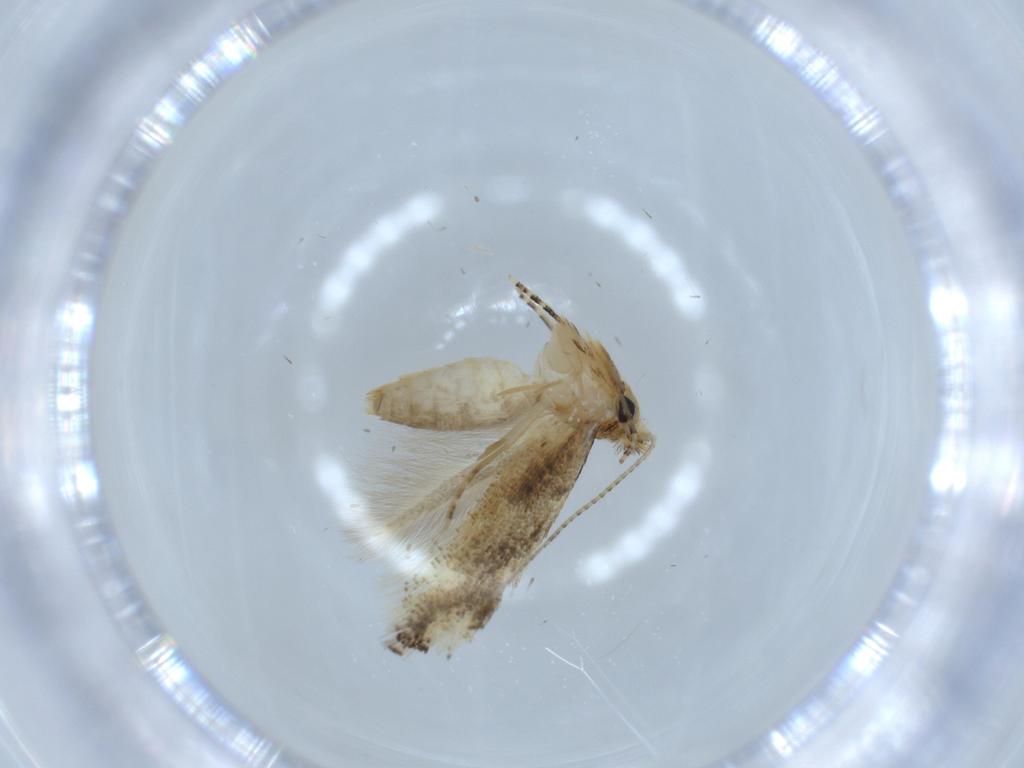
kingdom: Animalia
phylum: Arthropoda
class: Insecta
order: Lepidoptera
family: Bucculatricidae
